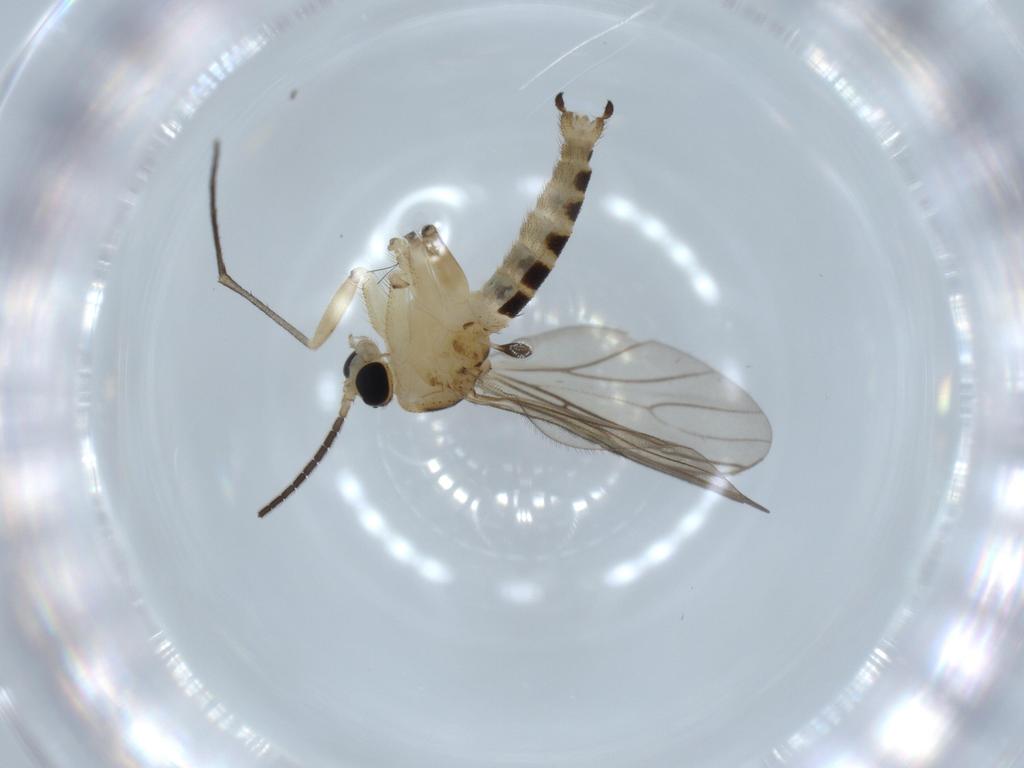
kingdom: Animalia
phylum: Arthropoda
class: Insecta
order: Diptera
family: Sciaridae
